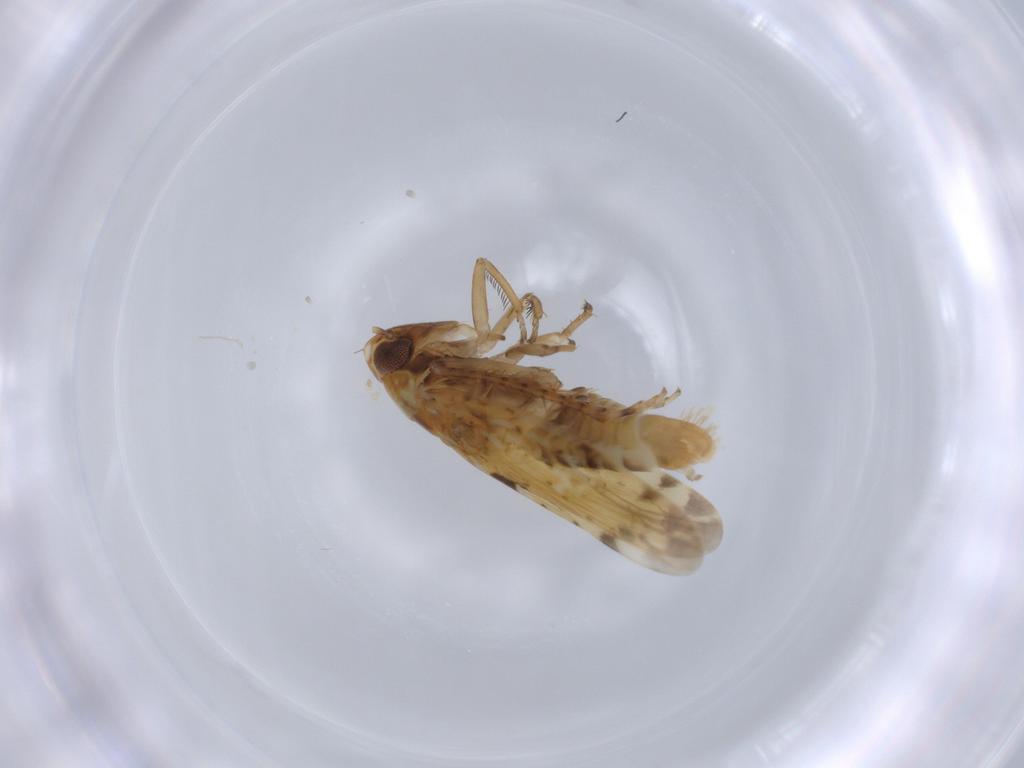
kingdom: Animalia
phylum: Arthropoda
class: Insecta
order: Hemiptera
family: Cicadellidae
